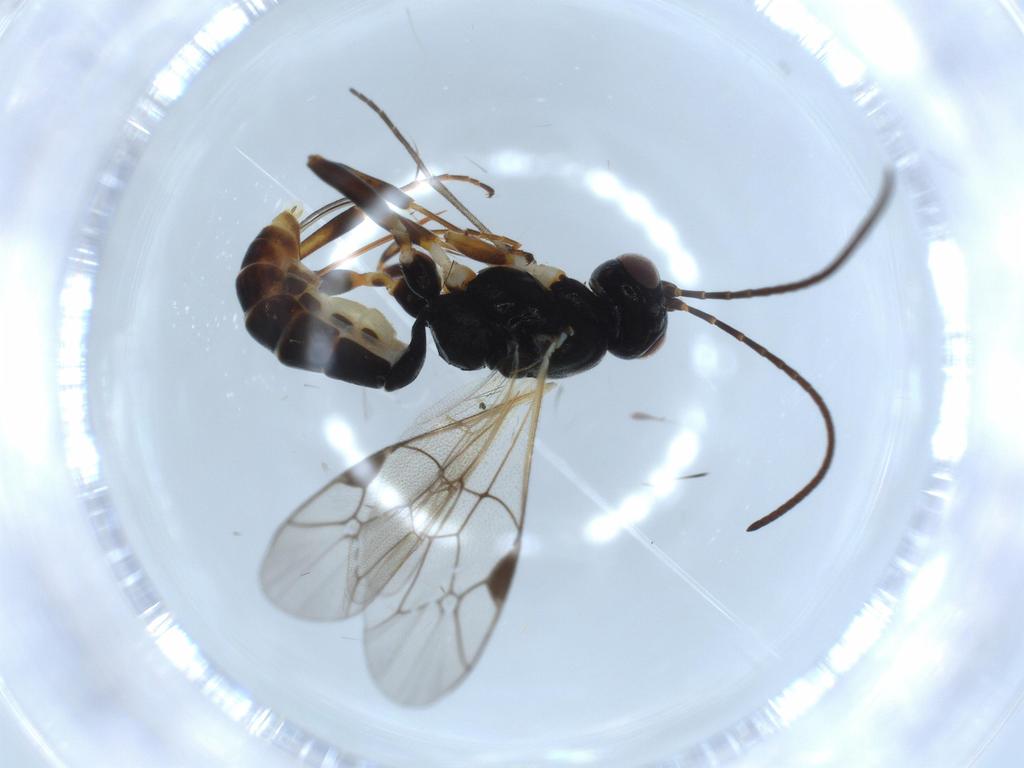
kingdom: Animalia
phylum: Arthropoda
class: Insecta
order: Hymenoptera
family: Ichneumonidae
